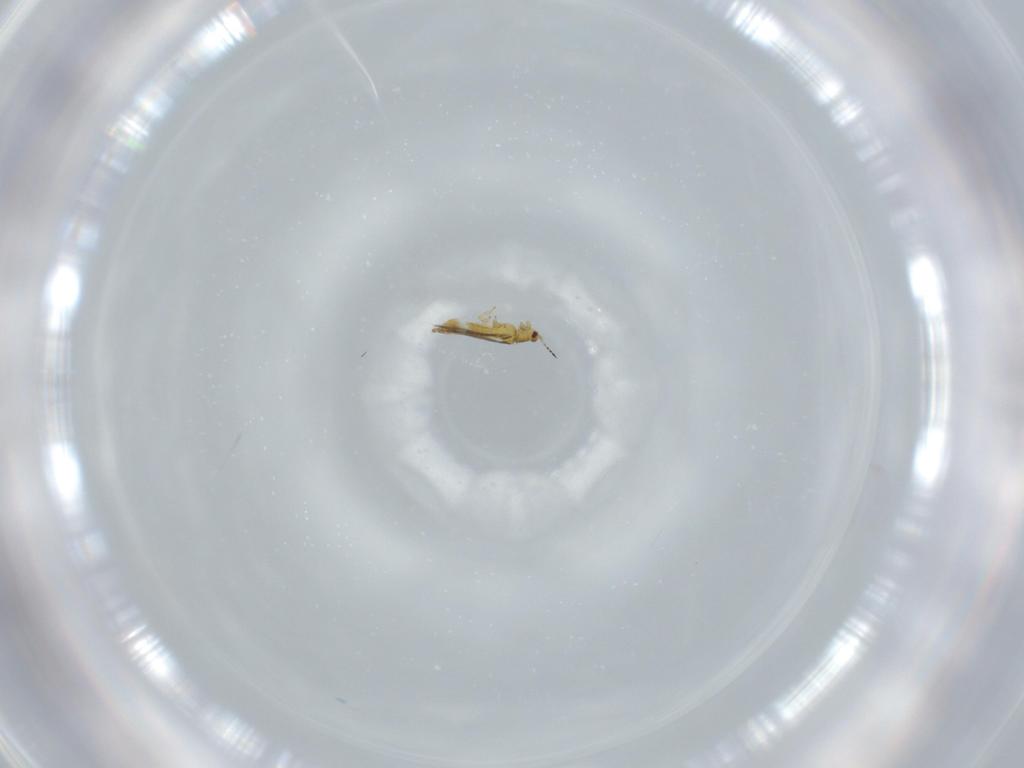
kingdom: Animalia
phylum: Arthropoda
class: Insecta
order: Thysanoptera
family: Thripidae
